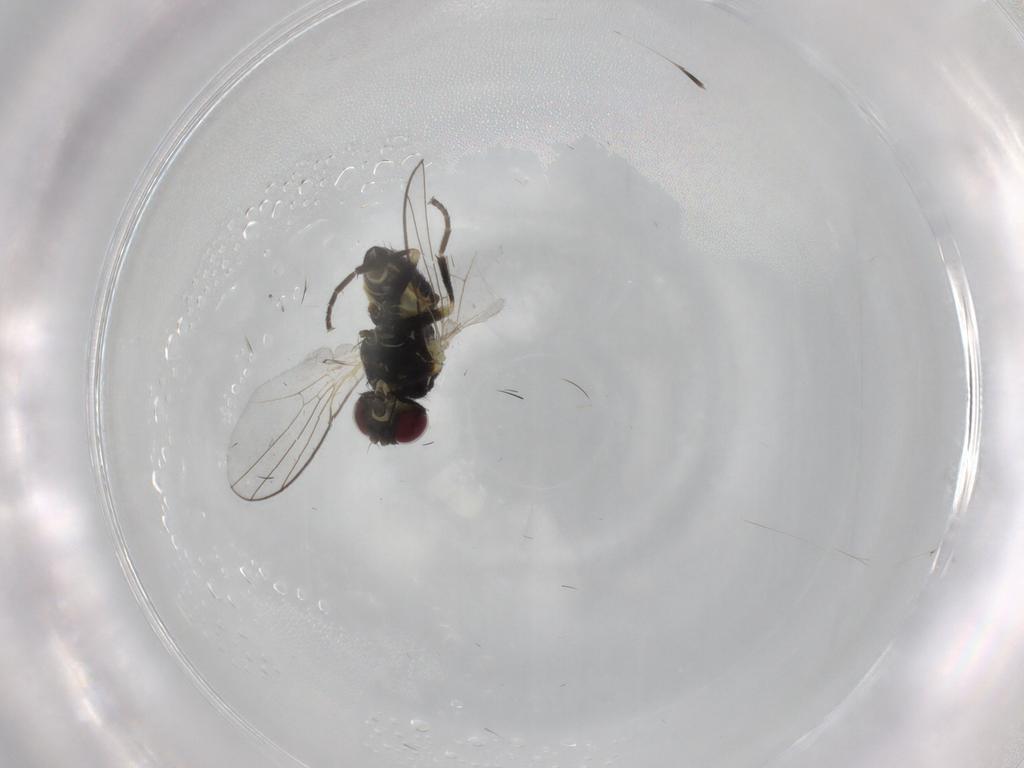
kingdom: Animalia
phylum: Arthropoda
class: Insecta
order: Diptera
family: Agromyzidae
